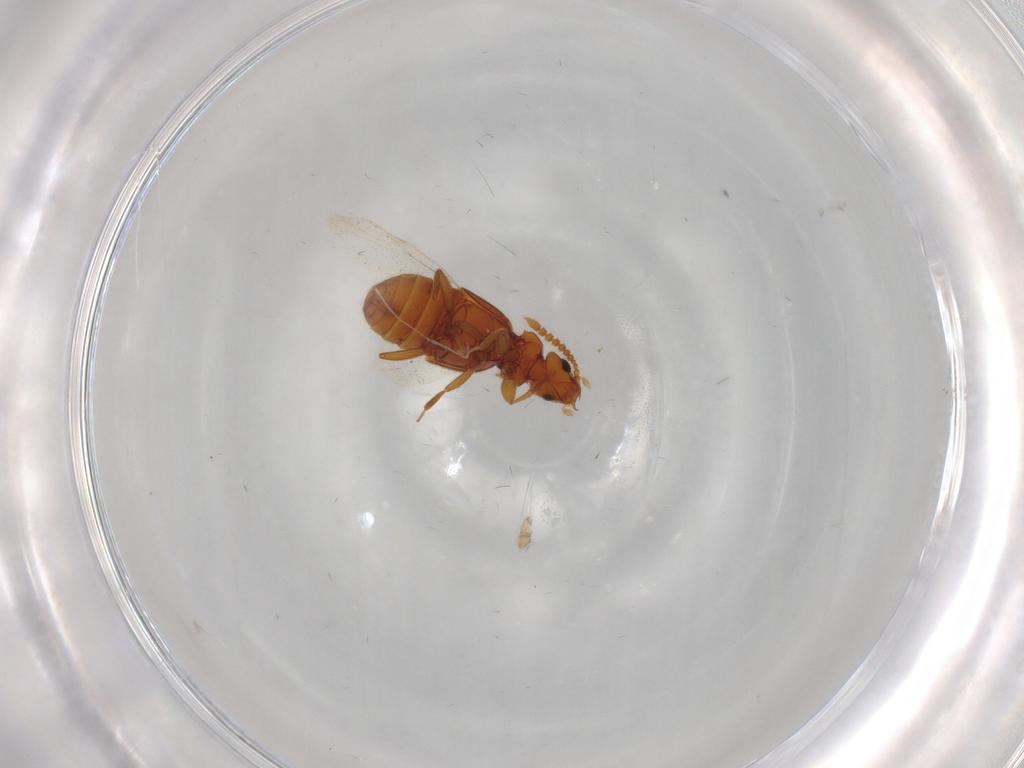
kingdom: Animalia
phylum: Arthropoda
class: Insecta
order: Coleoptera
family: Staphylinidae
